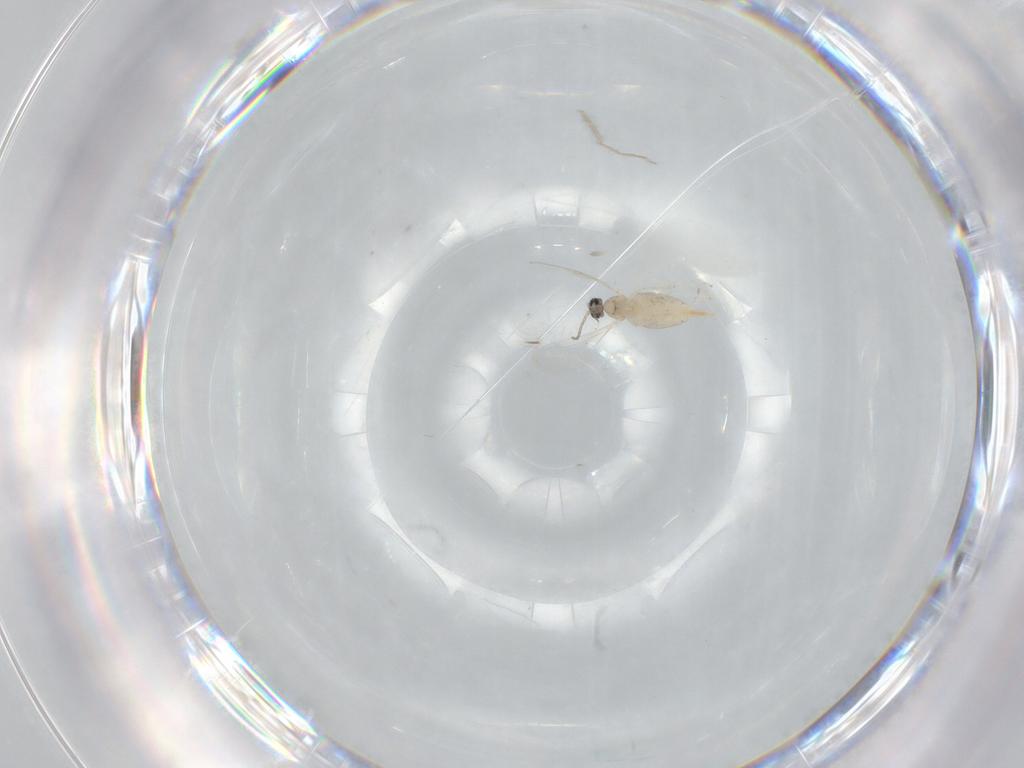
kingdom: Animalia
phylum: Arthropoda
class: Insecta
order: Diptera
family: Cecidomyiidae
